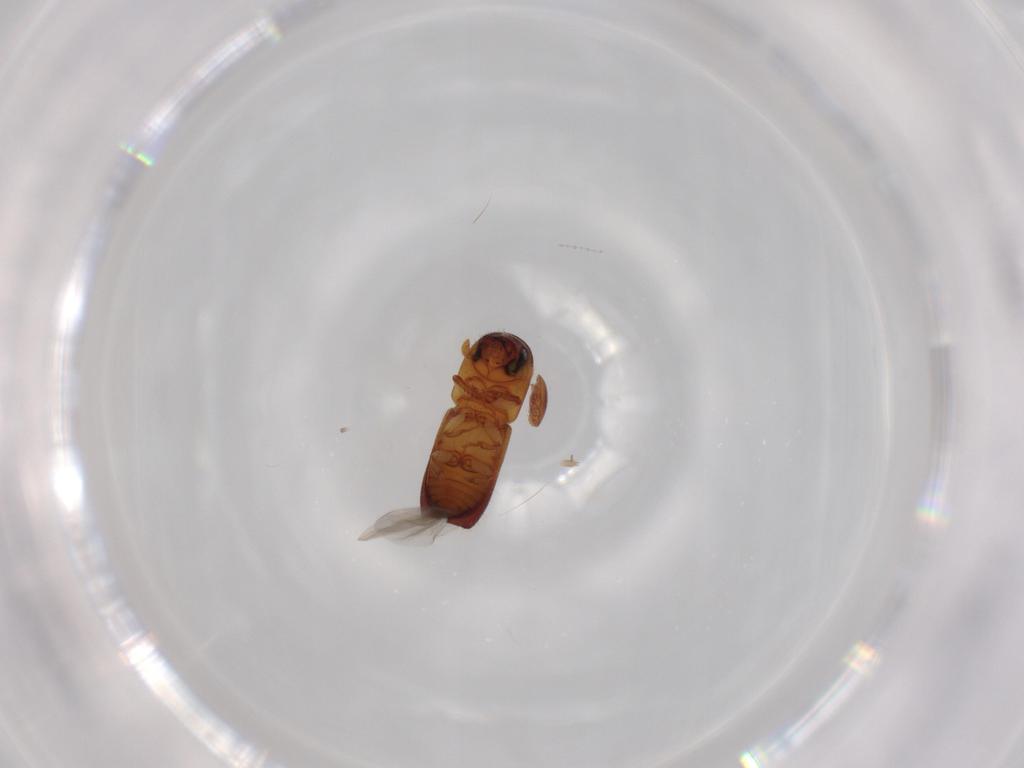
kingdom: Animalia
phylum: Arthropoda
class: Insecta
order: Coleoptera
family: Curculionidae
